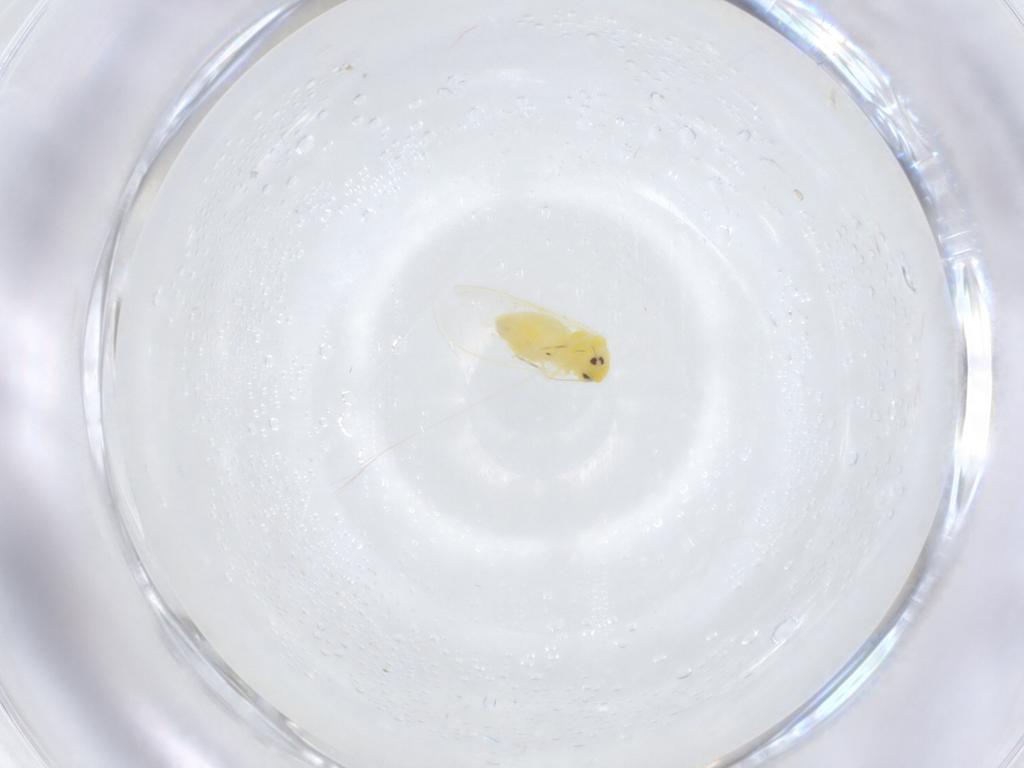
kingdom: Animalia
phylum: Arthropoda
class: Insecta
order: Hemiptera
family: Aleyrodidae
